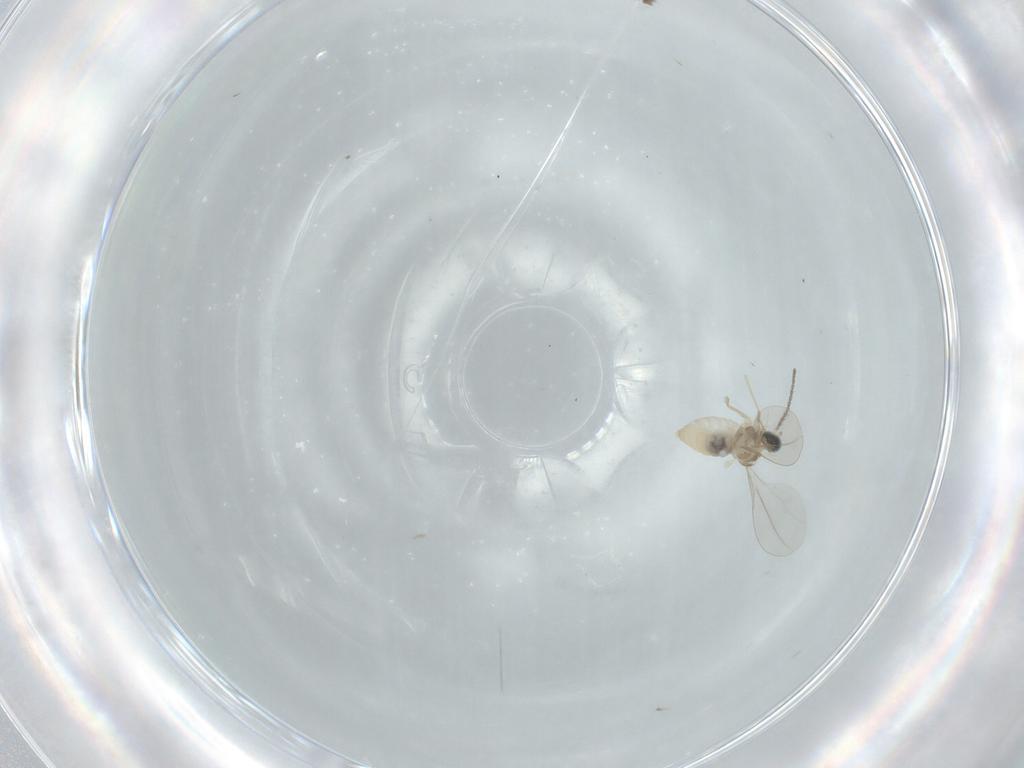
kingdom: Animalia
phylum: Arthropoda
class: Insecta
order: Diptera
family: Cecidomyiidae
